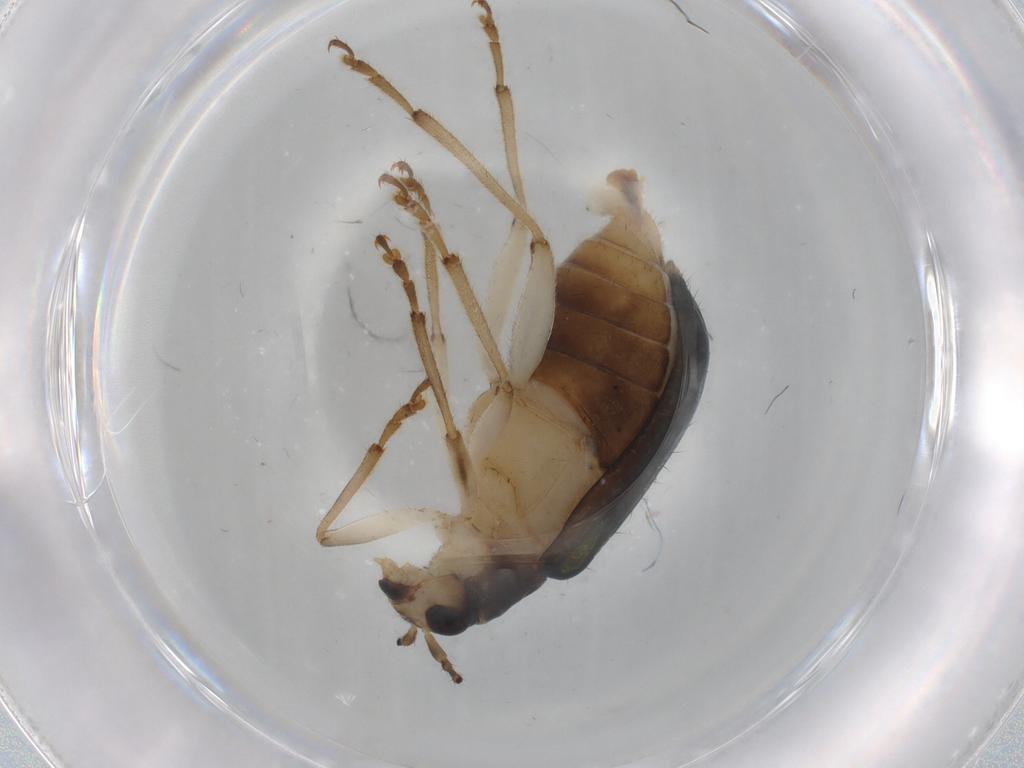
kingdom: Animalia
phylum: Arthropoda
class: Insecta
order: Coleoptera
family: Chrysomelidae
